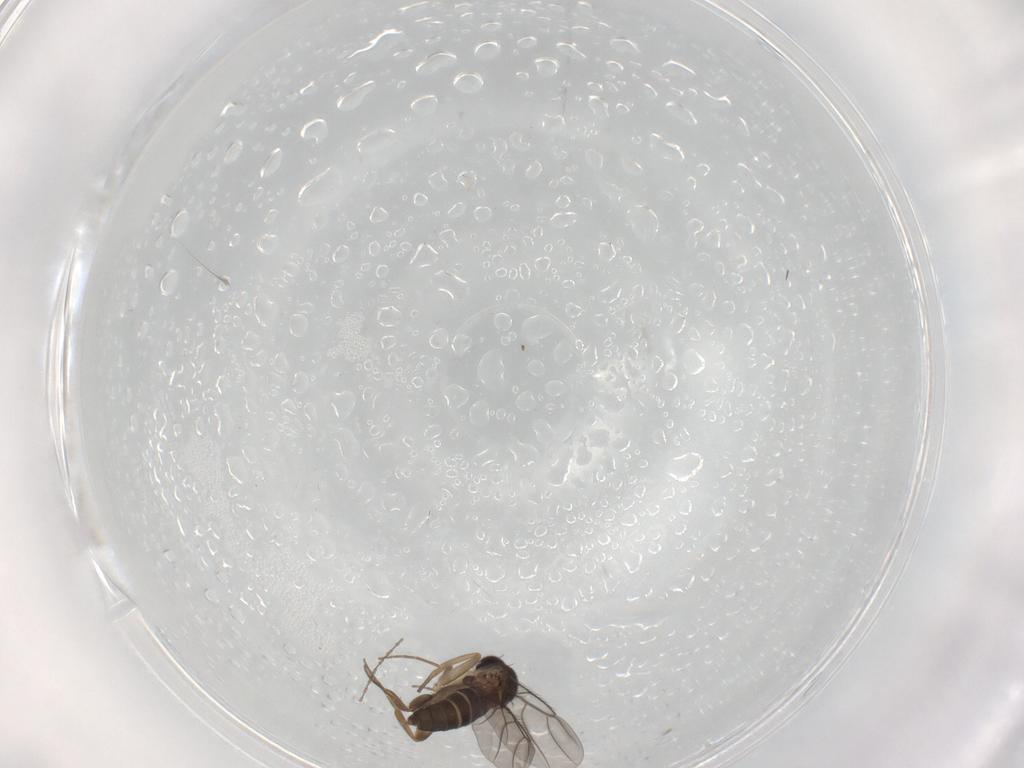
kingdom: Animalia
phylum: Arthropoda
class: Insecta
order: Diptera
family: Phoridae
